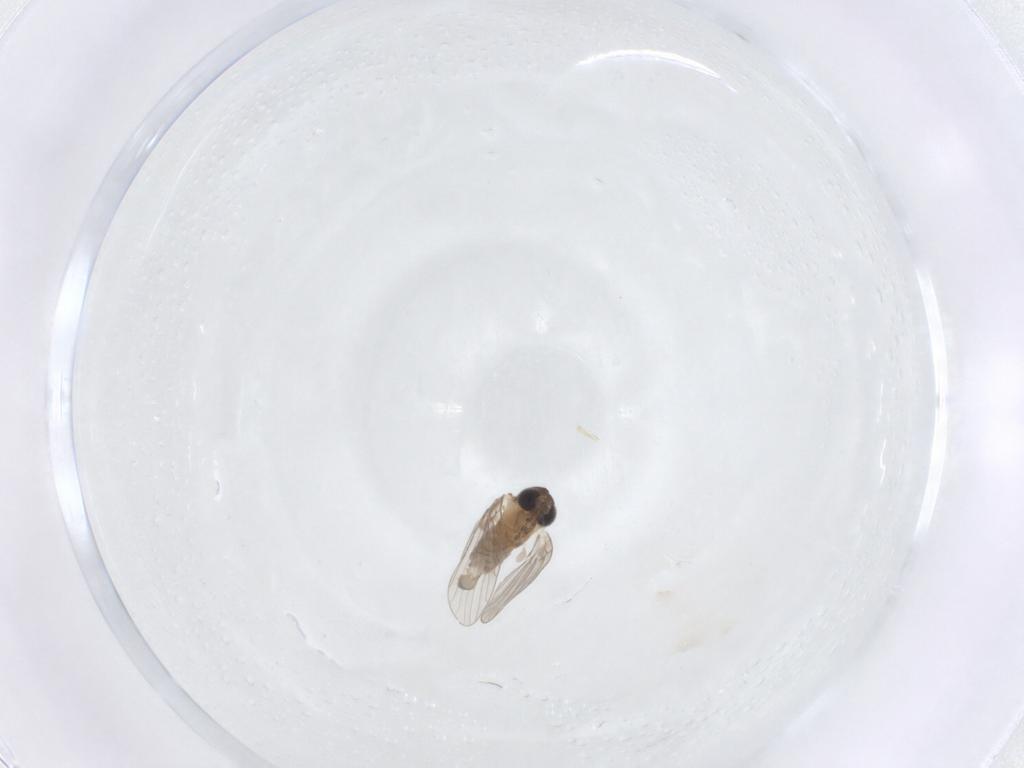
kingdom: Animalia
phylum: Arthropoda
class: Insecta
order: Diptera
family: Psychodidae
